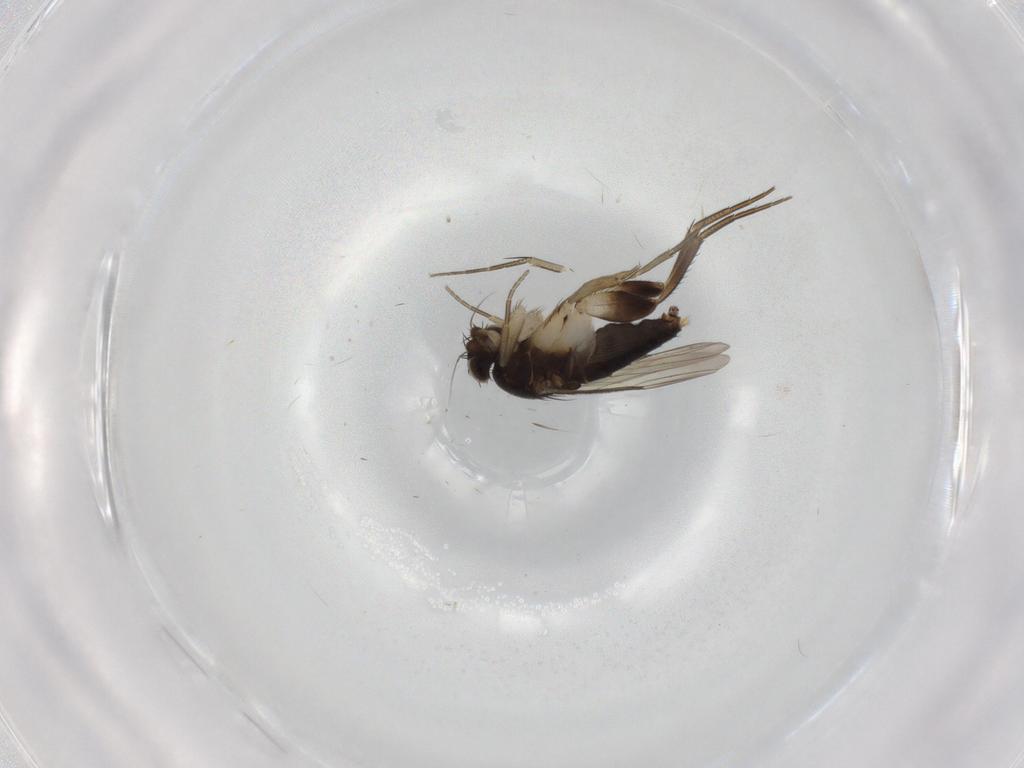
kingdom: Animalia
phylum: Arthropoda
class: Insecta
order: Diptera
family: Phoridae
